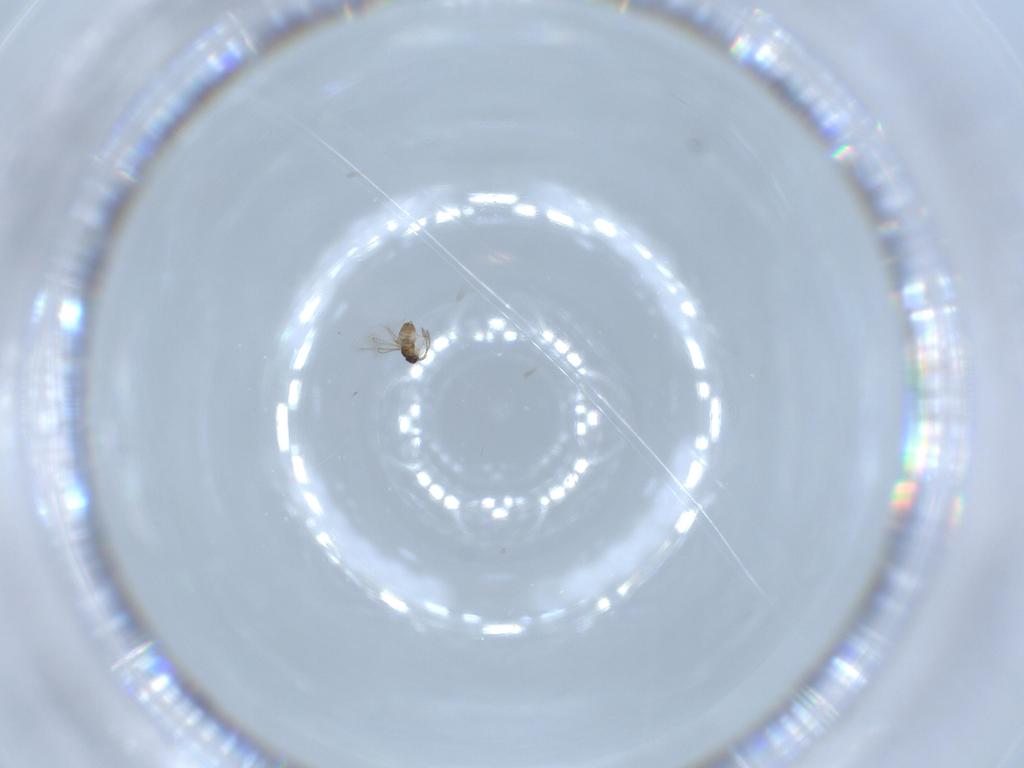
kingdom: Animalia
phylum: Arthropoda
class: Insecta
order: Hymenoptera
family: Mymaridae
